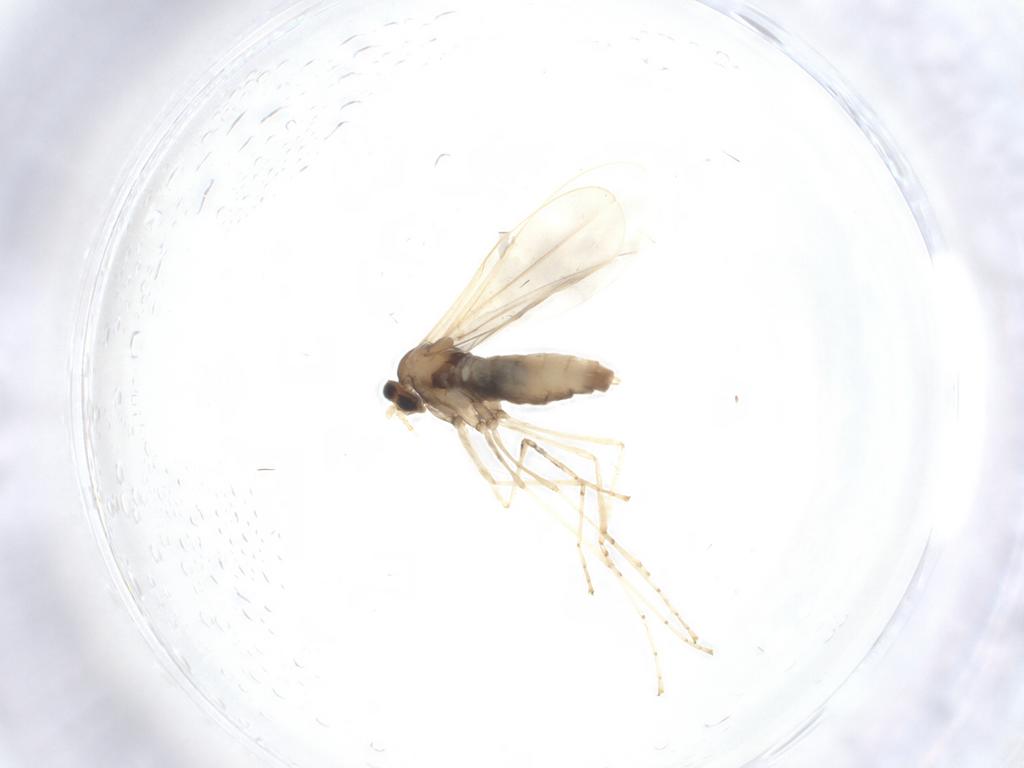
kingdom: Animalia
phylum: Arthropoda
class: Insecta
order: Diptera
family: Cecidomyiidae
